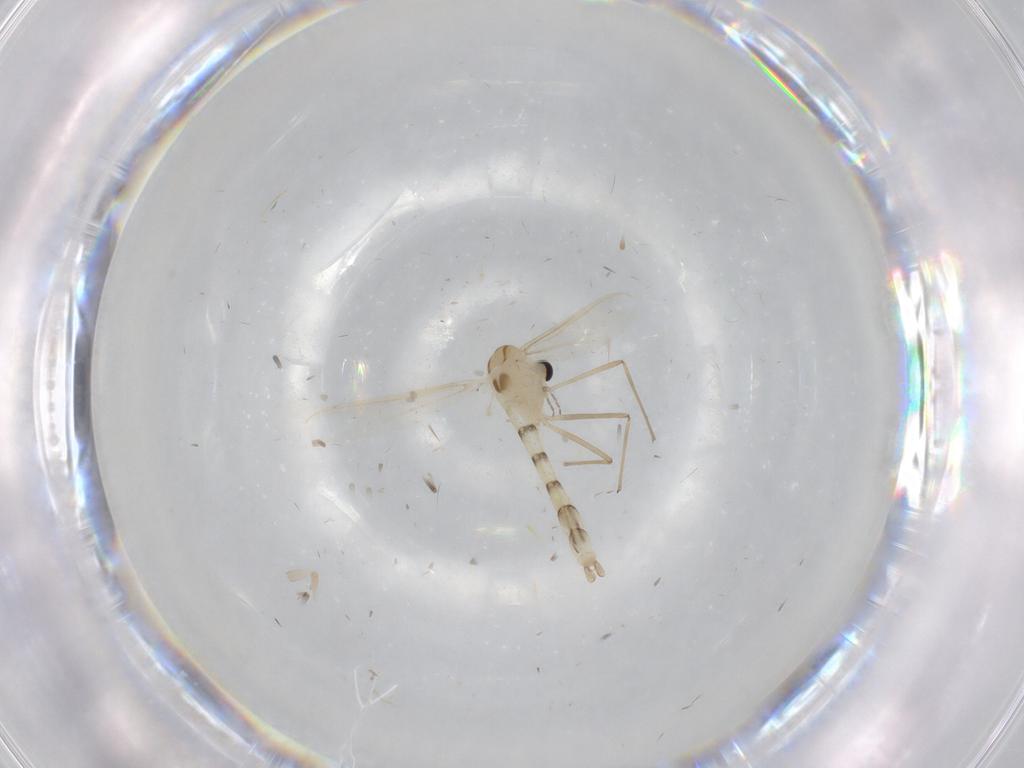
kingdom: Animalia
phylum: Arthropoda
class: Insecta
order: Diptera
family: Chironomidae
